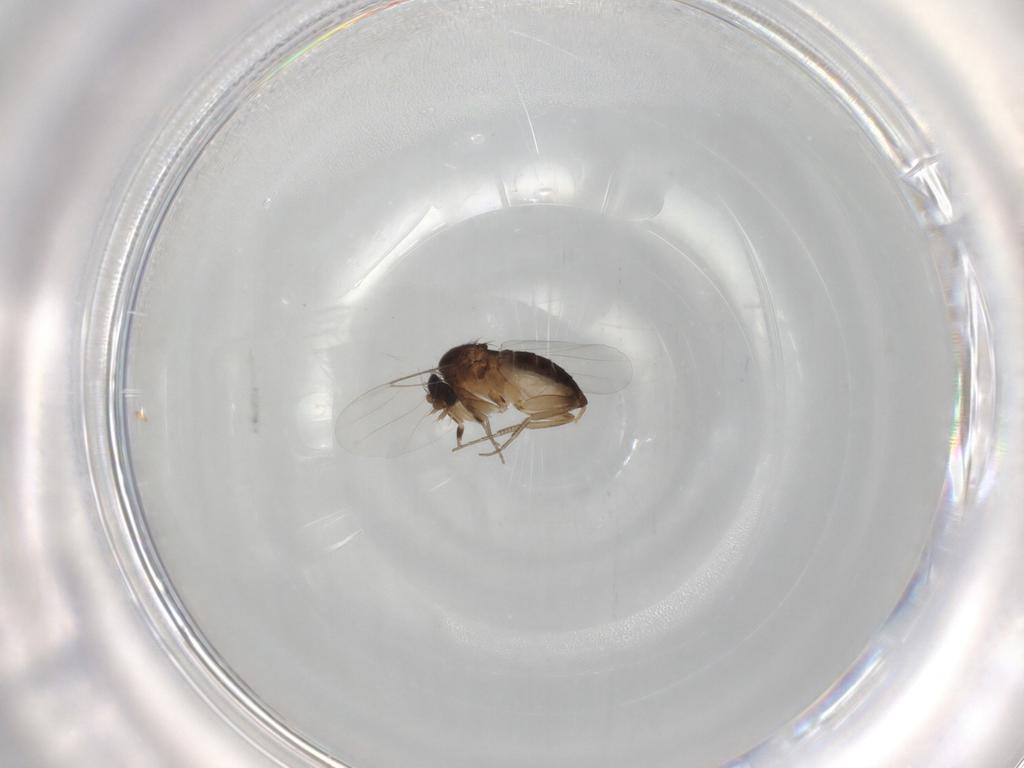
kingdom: Animalia
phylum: Arthropoda
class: Insecta
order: Diptera
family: Phoridae
